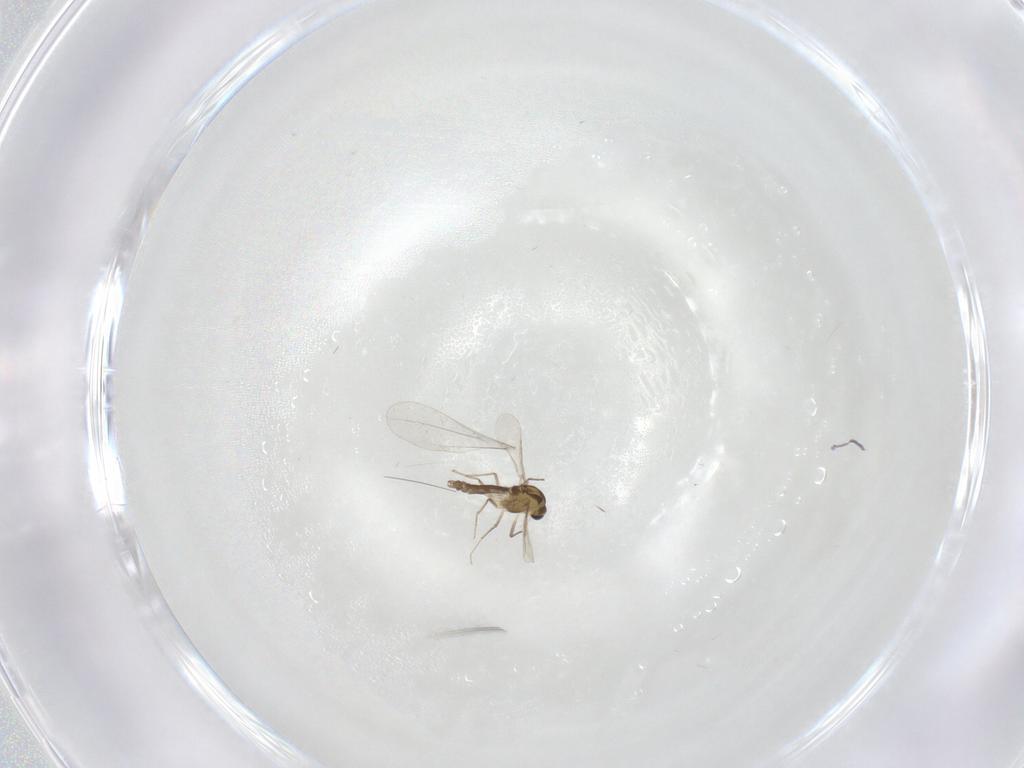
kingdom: Animalia
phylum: Arthropoda
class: Insecta
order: Diptera
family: Chironomidae
